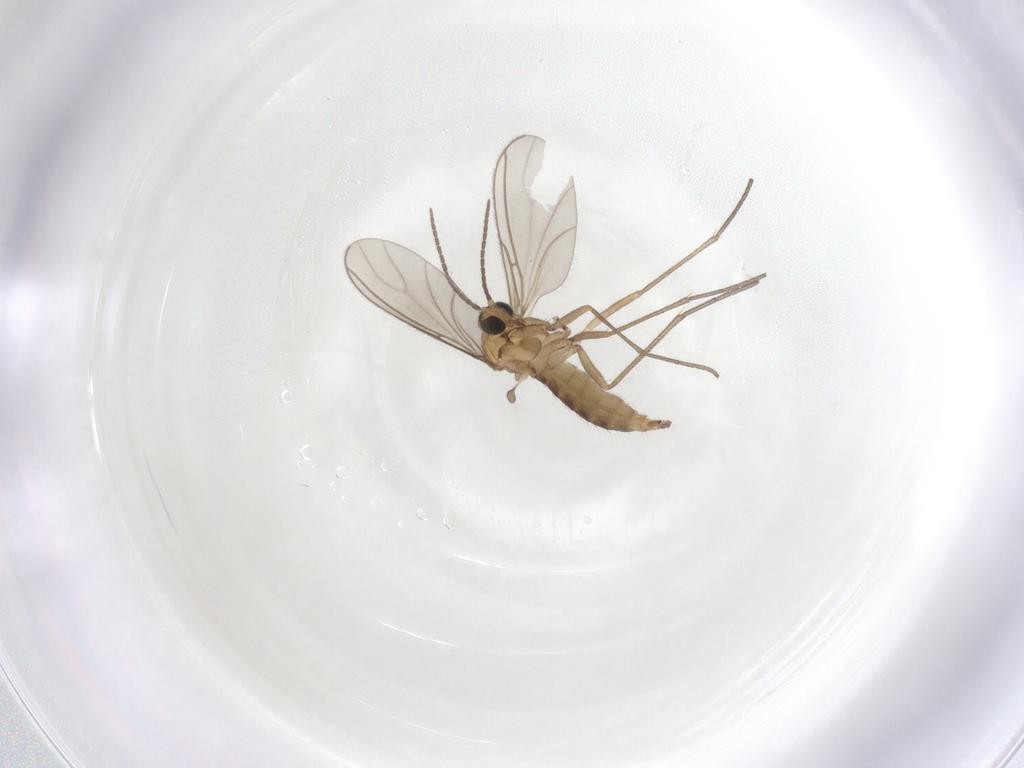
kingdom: Animalia
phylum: Arthropoda
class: Insecta
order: Diptera
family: Sciaridae
